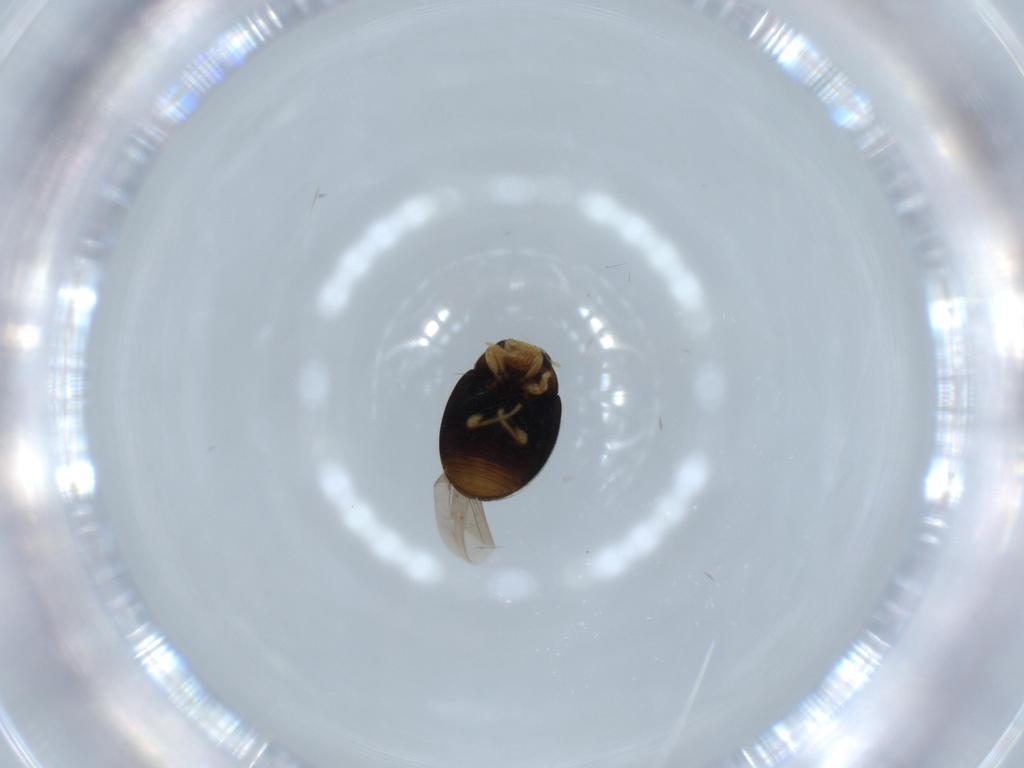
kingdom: Animalia
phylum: Arthropoda
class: Insecta
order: Coleoptera
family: Coccinellidae
